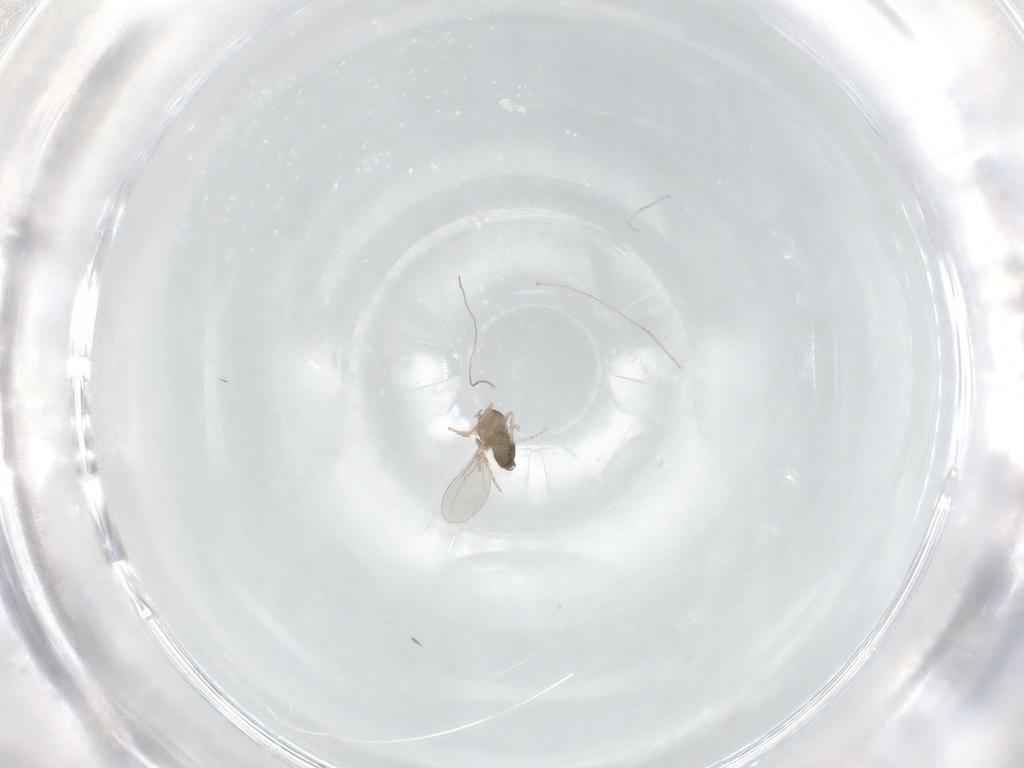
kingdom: Animalia
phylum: Arthropoda
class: Insecta
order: Diptera
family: Cecidomyiidae
